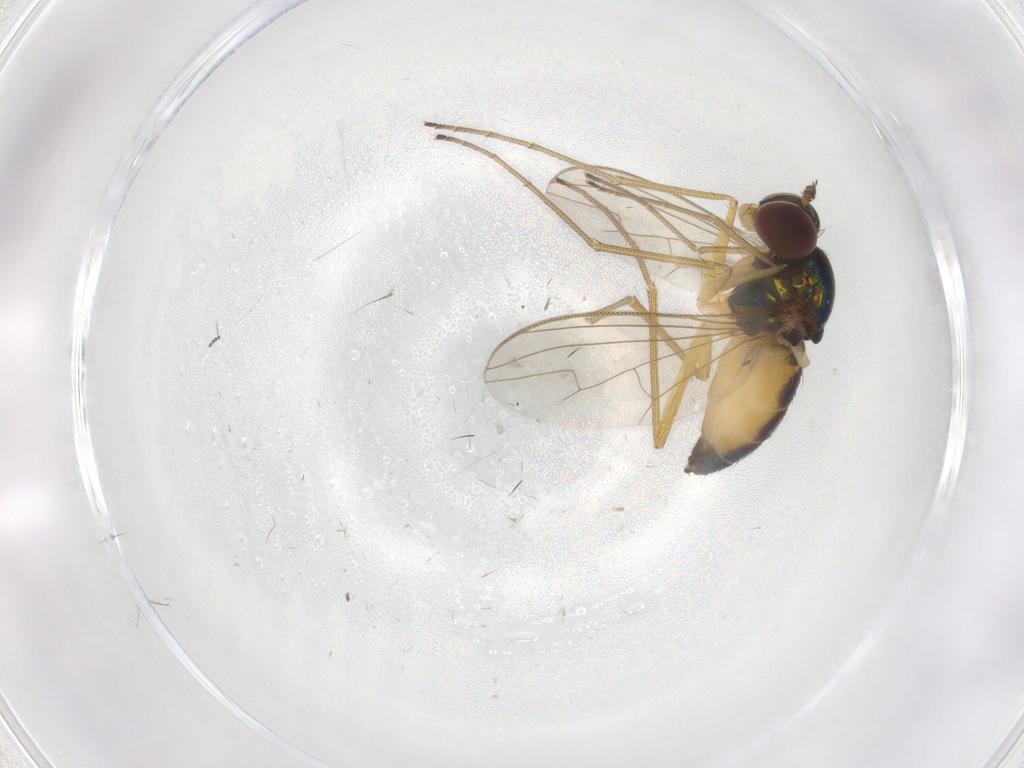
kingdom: Animalia
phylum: Arthropoda
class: Insecta
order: Diptera
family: Dolichopodidae
